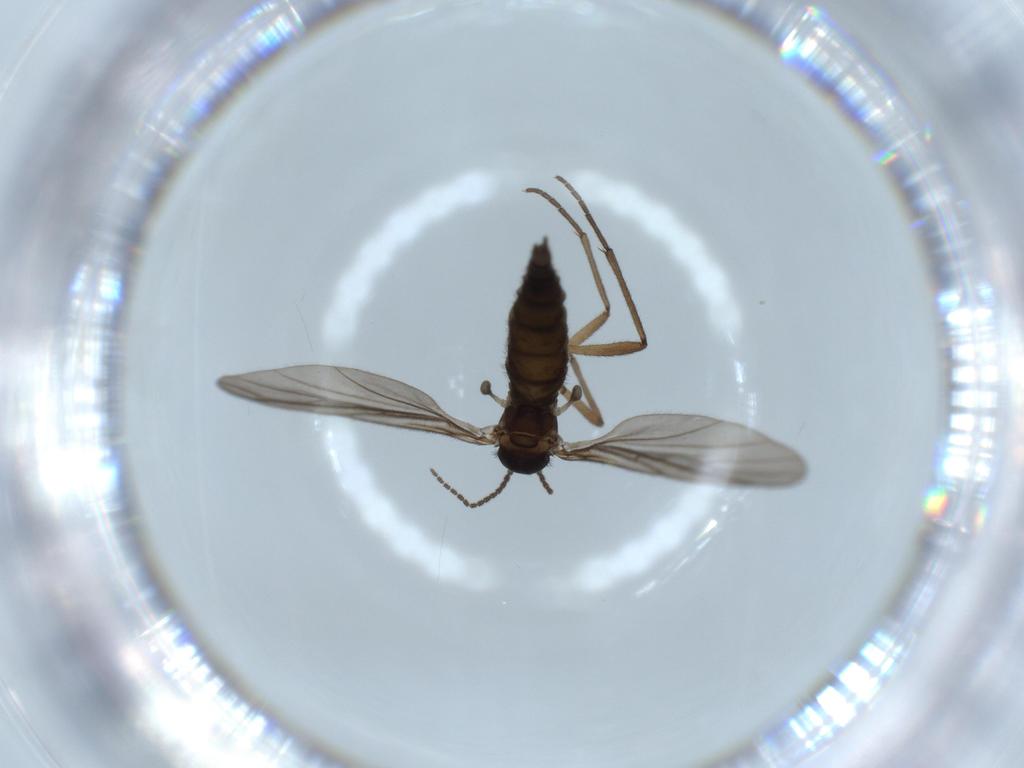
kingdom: Animalia
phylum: Arthropoda
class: Insecta
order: Diptera
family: Sciaridae
